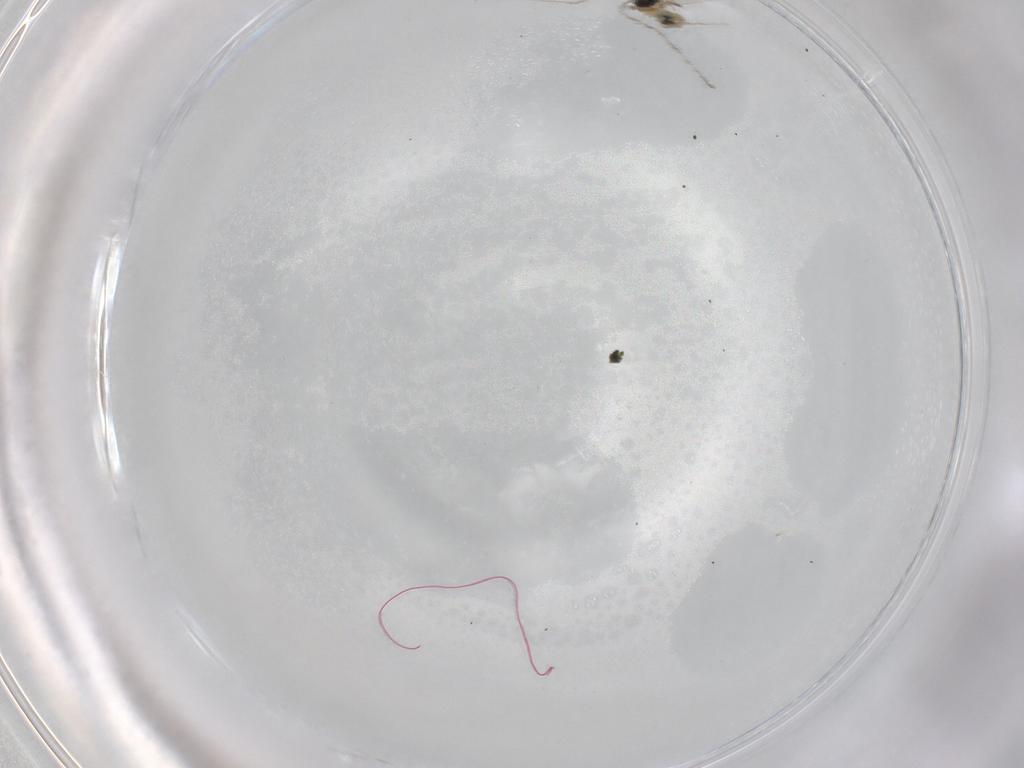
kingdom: Animalia
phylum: Arthropoda
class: Insecta
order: Diptera
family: Cecidomyiidae
